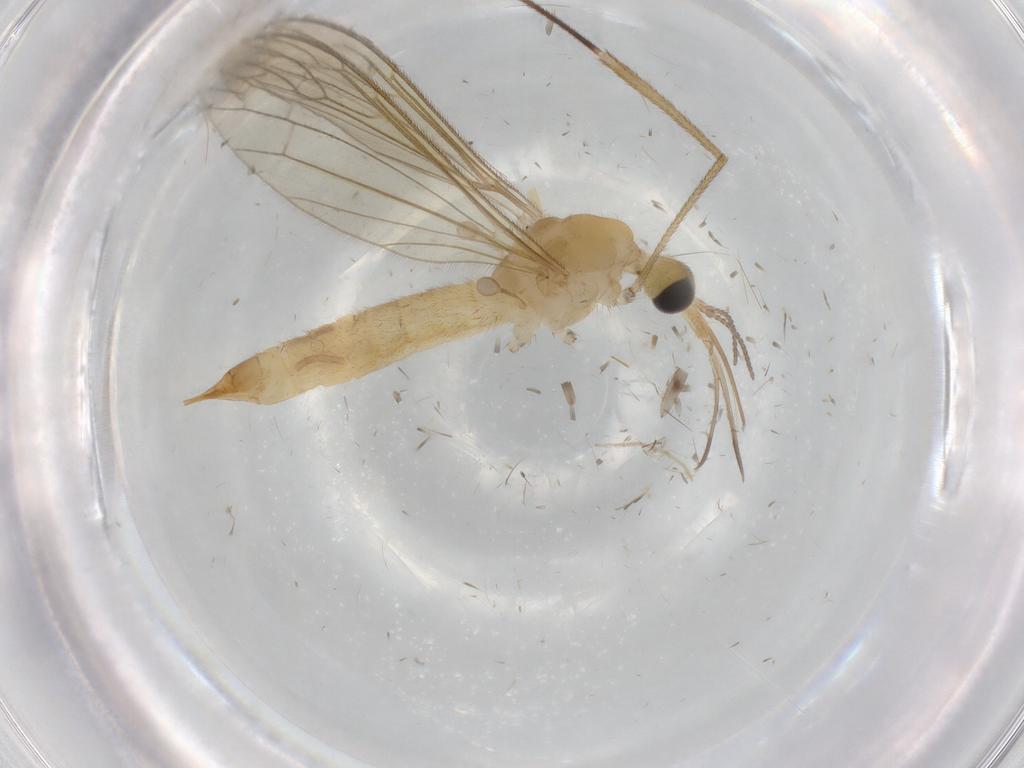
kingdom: Animalia
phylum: Arthropoda
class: Insecta
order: Diptera
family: Limoniidae
